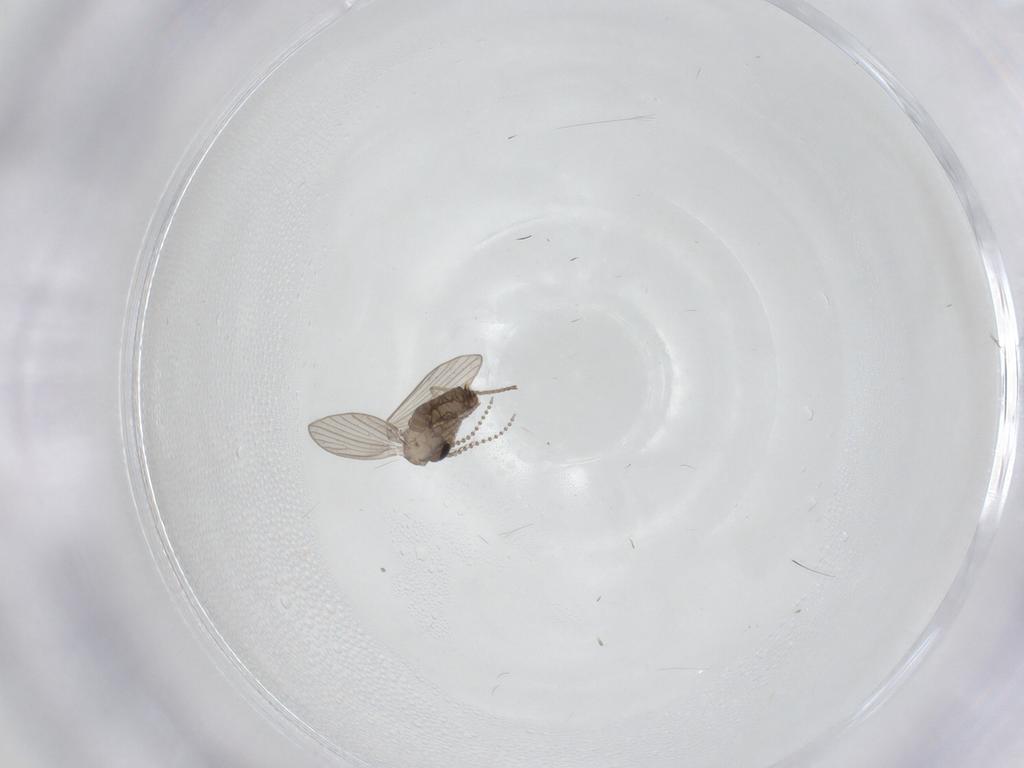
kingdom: Animalia
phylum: Arthropoda
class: Insecta
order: Diptera
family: Psychodidae
